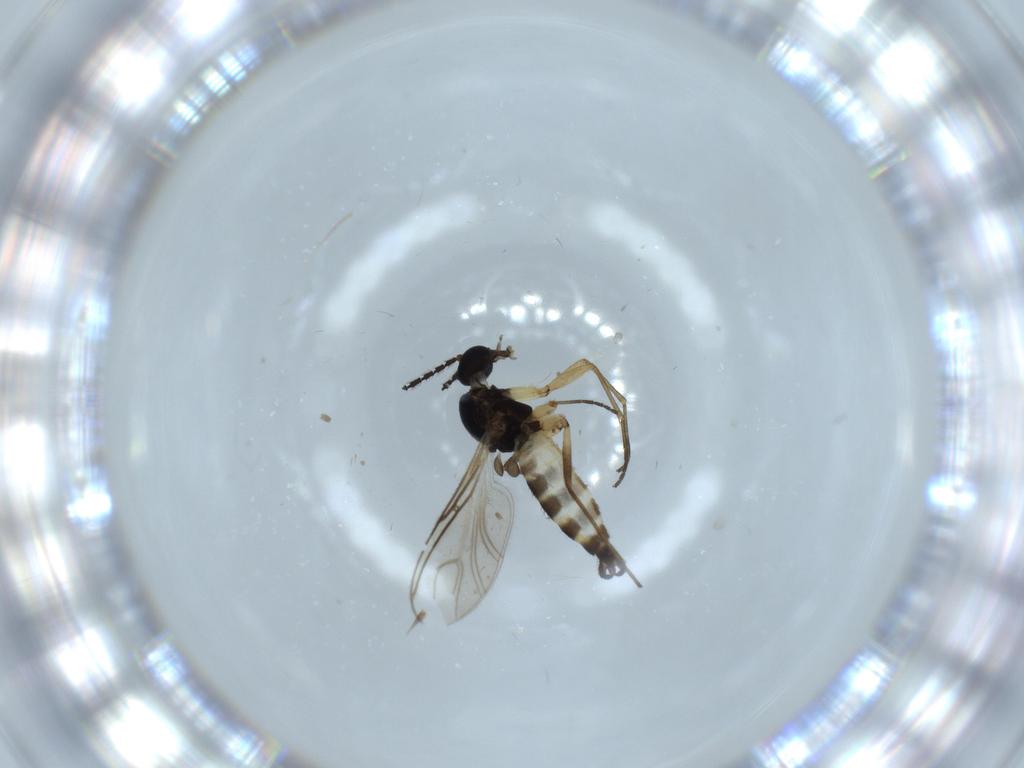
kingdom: Animalia
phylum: Arthropoda
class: Insecta
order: Diptera
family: Sciaridae
